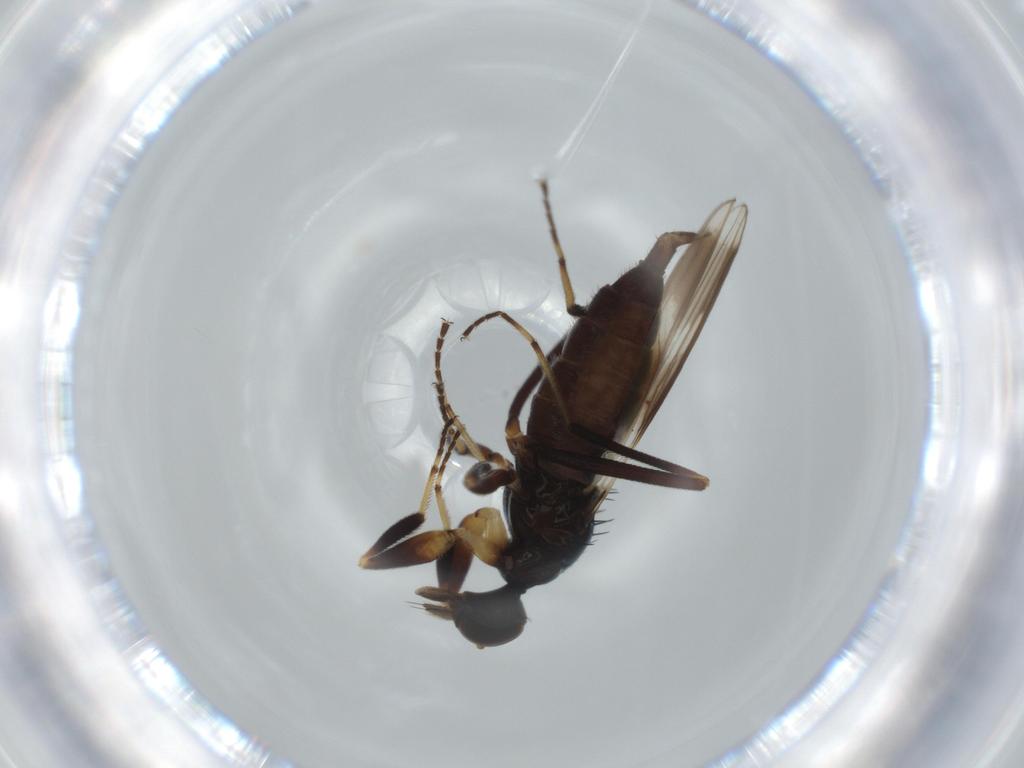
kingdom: Animalia
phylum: Arthropoda
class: Insecta
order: Diptera
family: Hybotidae
